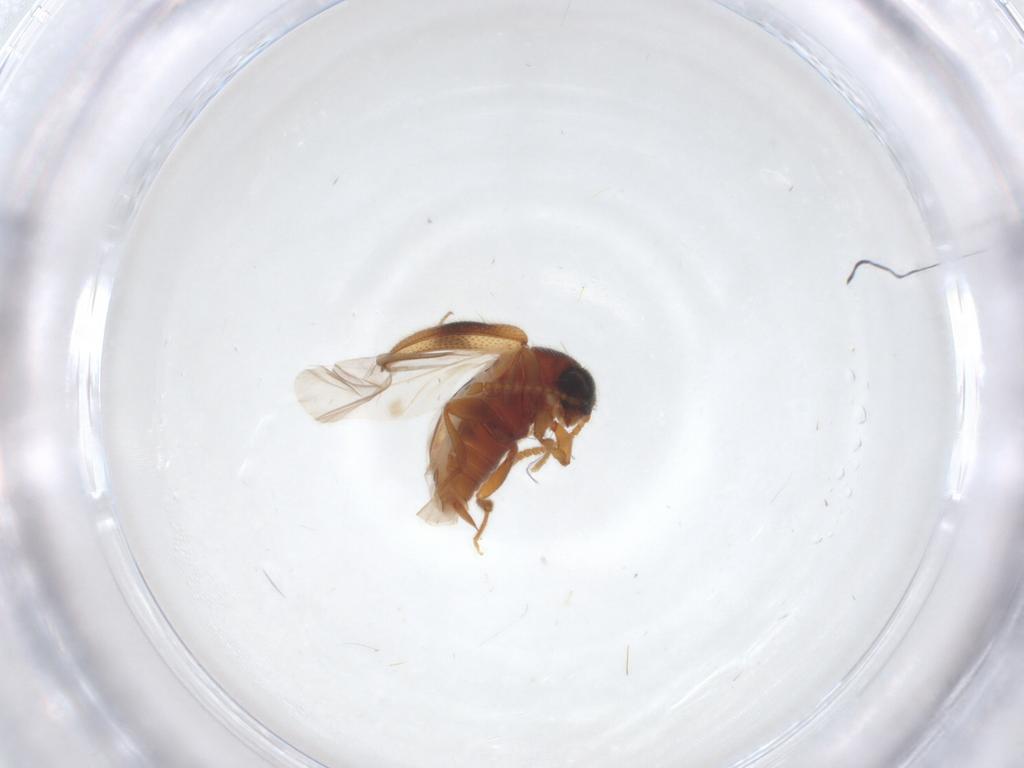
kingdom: Animalia
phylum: Arthropoda
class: Insecta
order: Coleoptera
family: Aderidae
